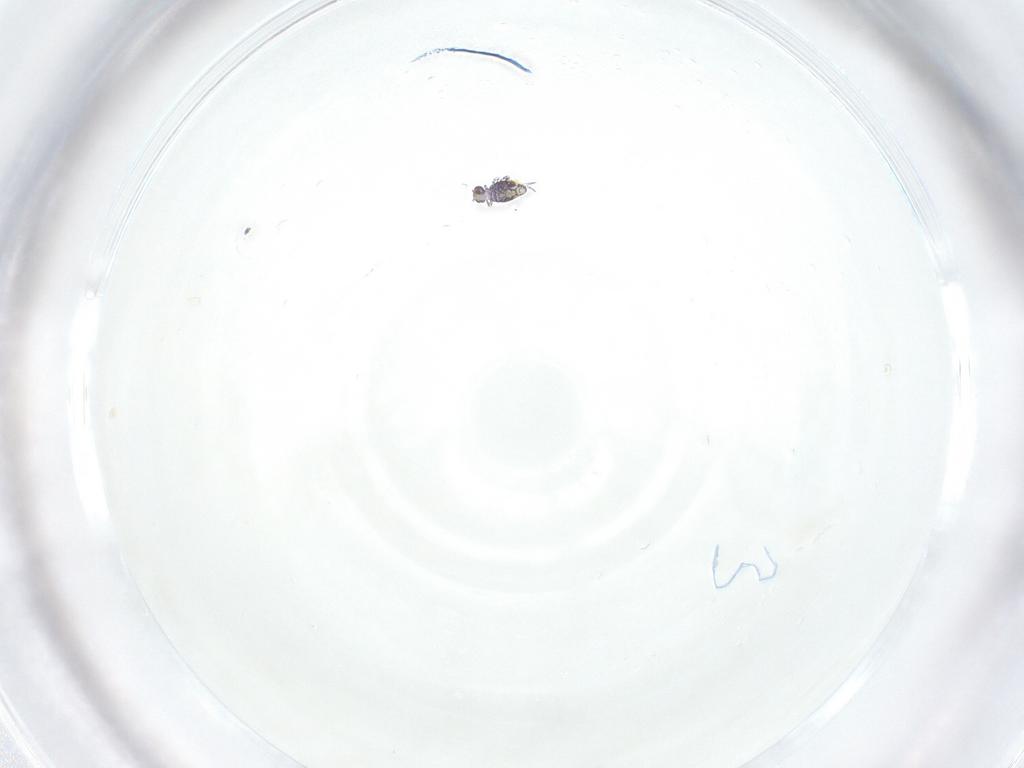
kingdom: Animalia
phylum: Arthropoda
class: Collembola
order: Symphypleona
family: Katiannidae
